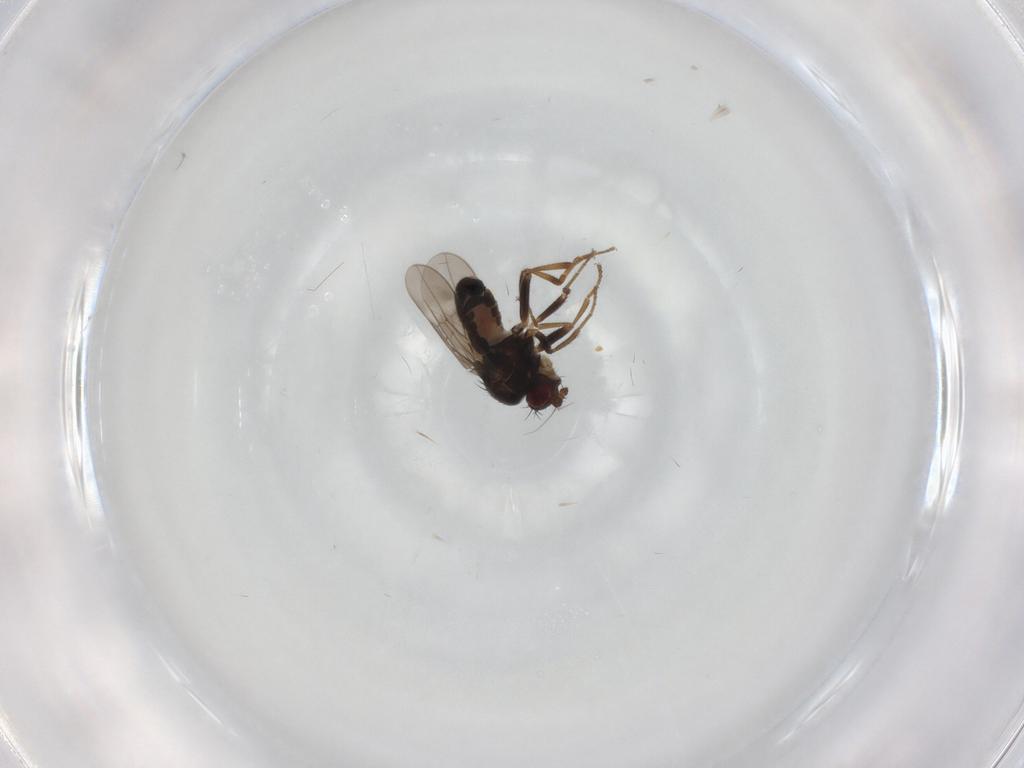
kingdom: Animalia
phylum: Arthropoda
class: Insecta
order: Diptera
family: Sphaeroceridae
